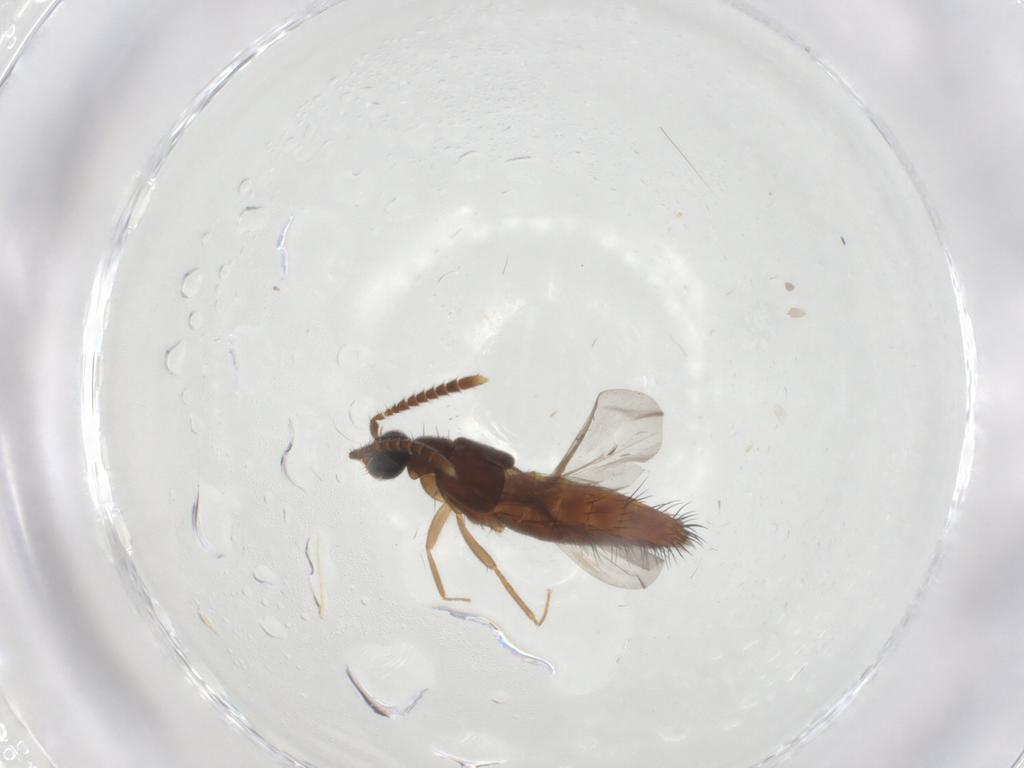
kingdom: Animalia
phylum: Arthropoda
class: Insecta
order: Coleoptera
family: Staphylinidae
